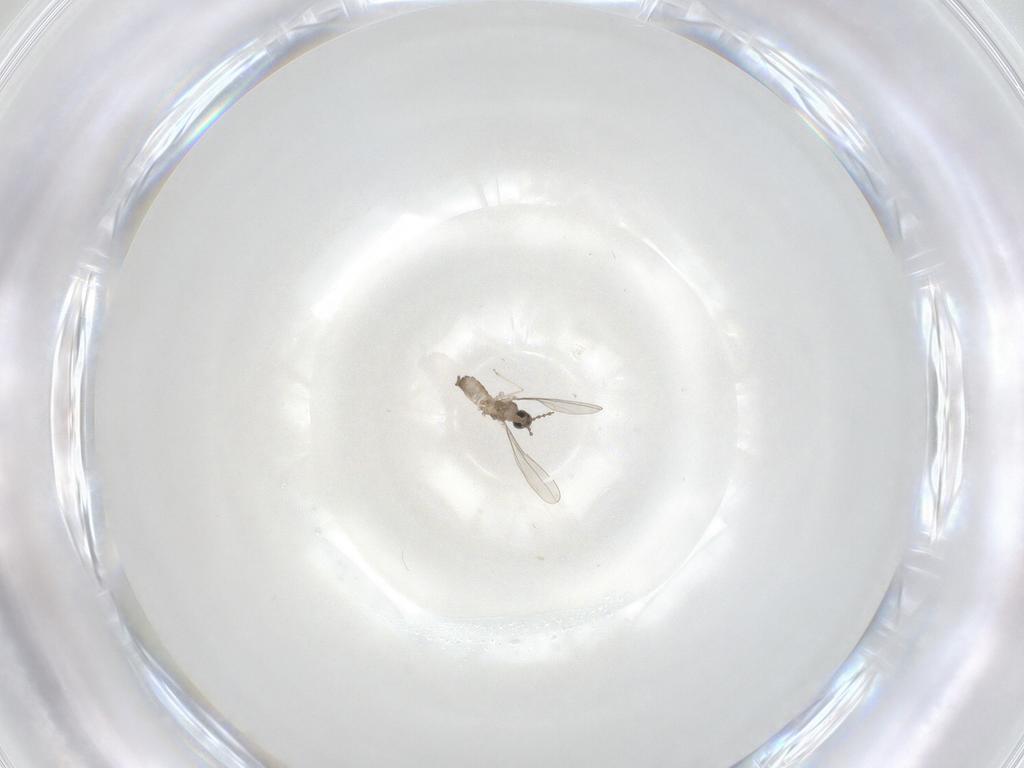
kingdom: Animalia
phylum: Arthropoda
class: Insecta
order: Diptera
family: Cecidomyiidae
